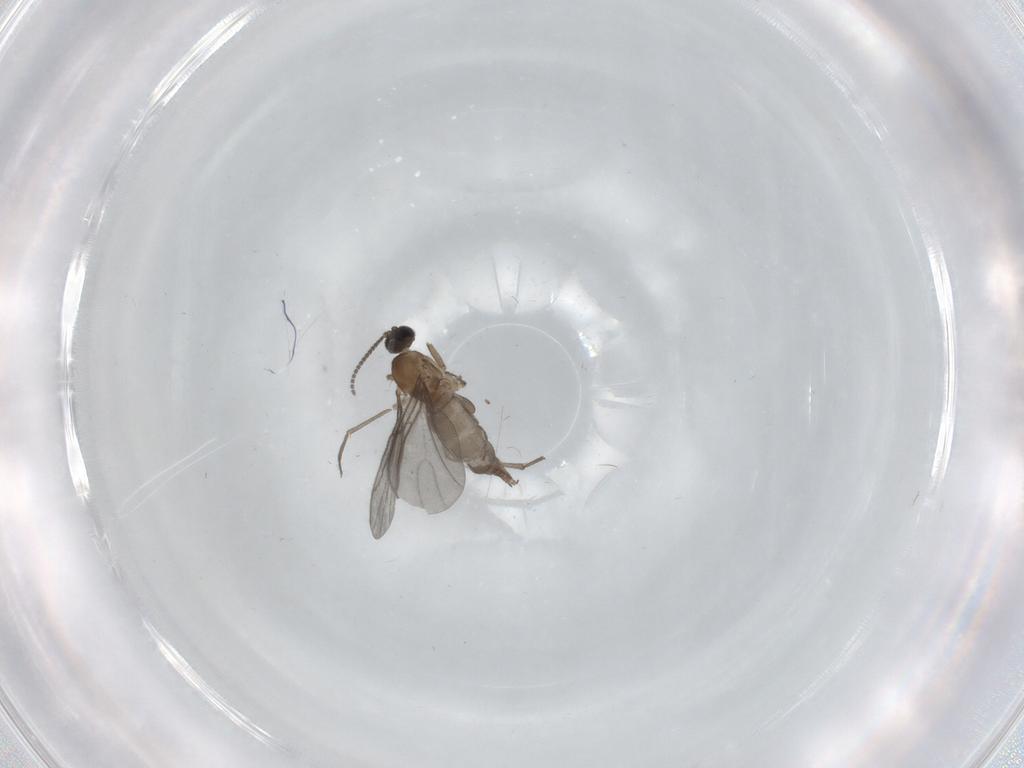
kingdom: Animalia
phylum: Arthropoda
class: Insecta
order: Diptera
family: Sciaridae
